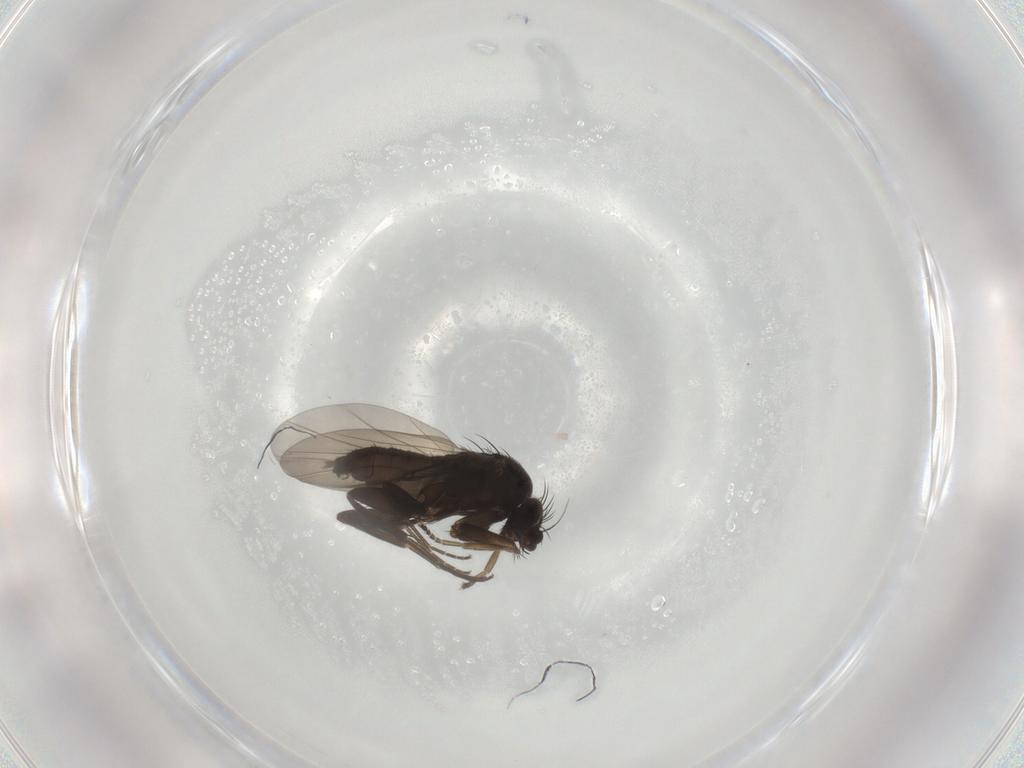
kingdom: Animalia
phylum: Arthropoda
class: Insecta
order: Diptera
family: Phoridae
